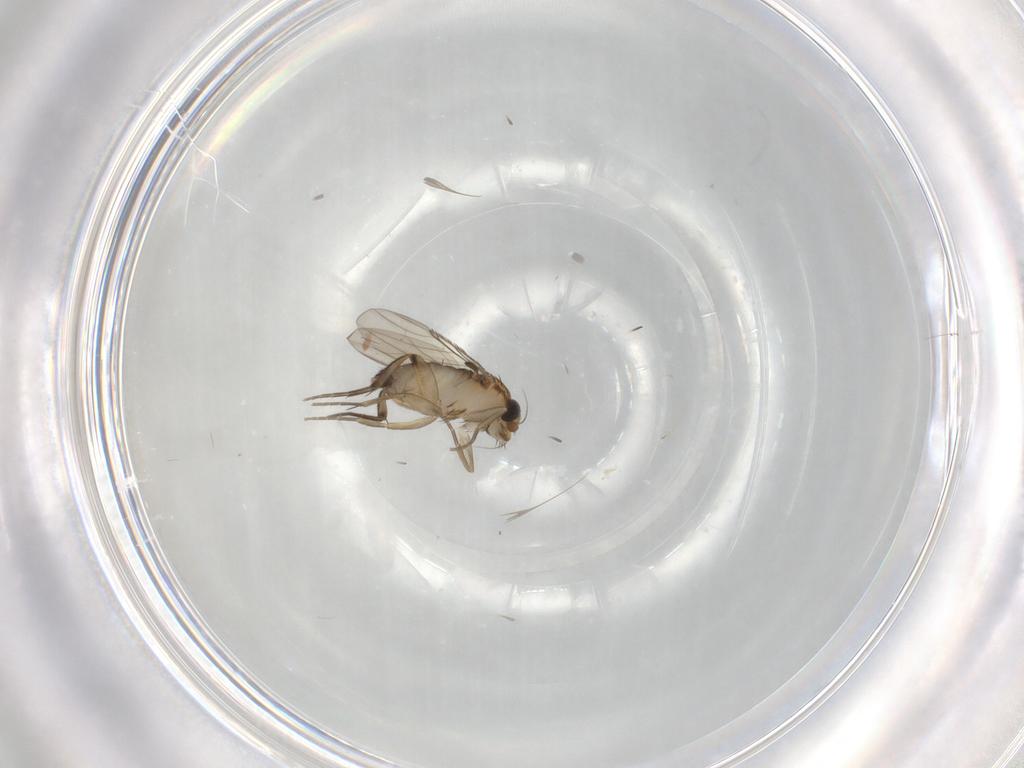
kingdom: Animalia
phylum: Arthropoda
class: Insecta
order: Diptera
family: Phoridae
